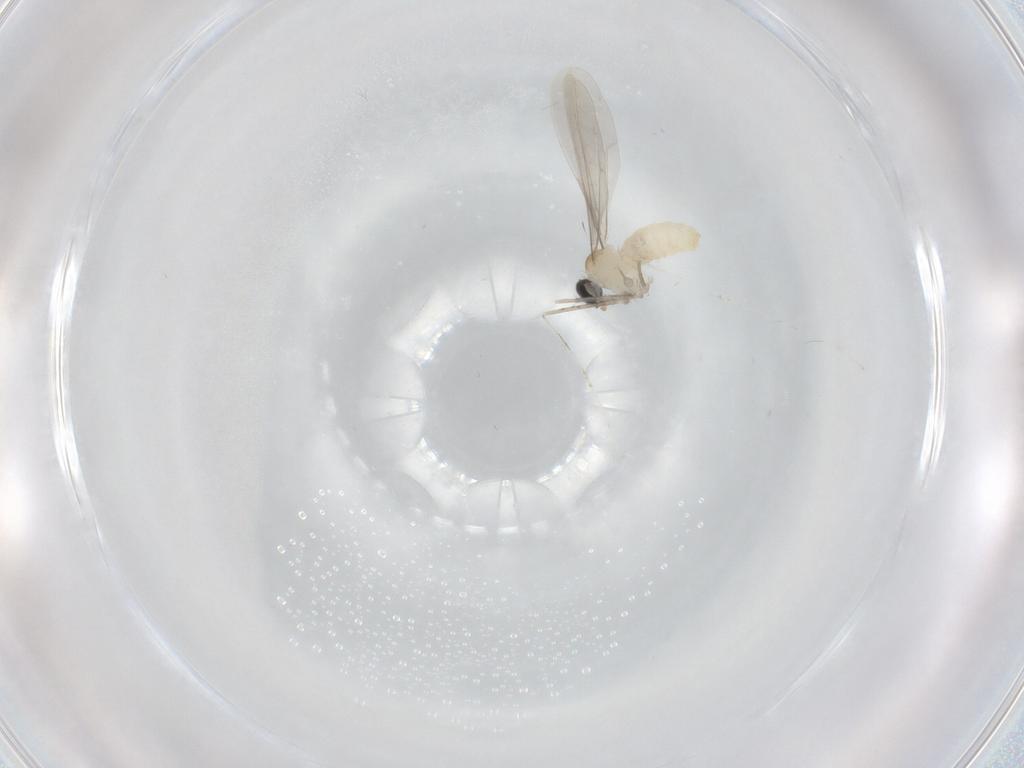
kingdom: Animalia
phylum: Arthropoda
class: Insecta
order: Diptera
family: Cecidomyiidae
